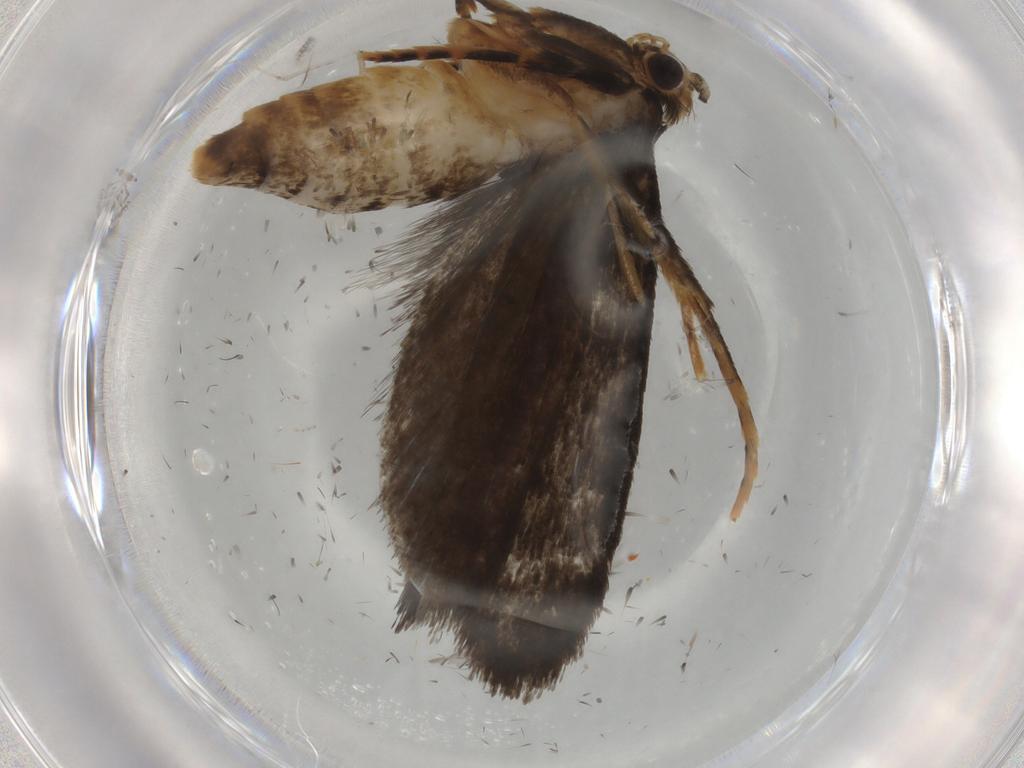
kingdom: Animalia
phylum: Arthropoda
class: Insecta
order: Lepidoptera
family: Tineidae
